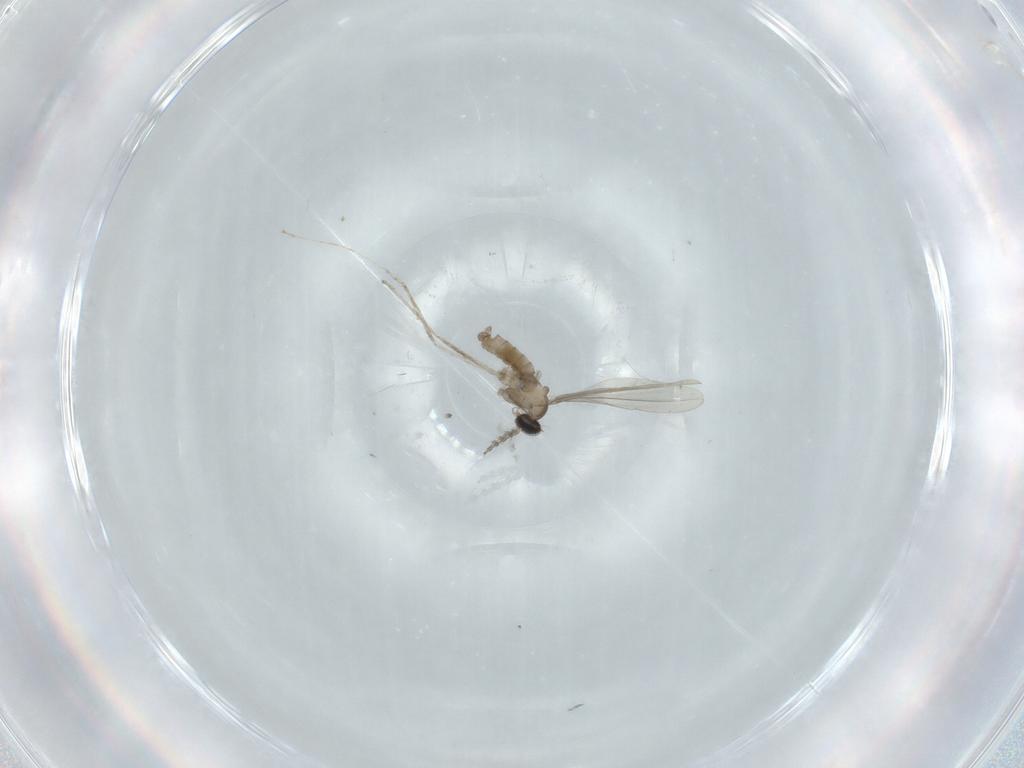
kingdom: Animalia
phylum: Arthropoda
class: Insecta
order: Diptera
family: Cecidomyiidae
